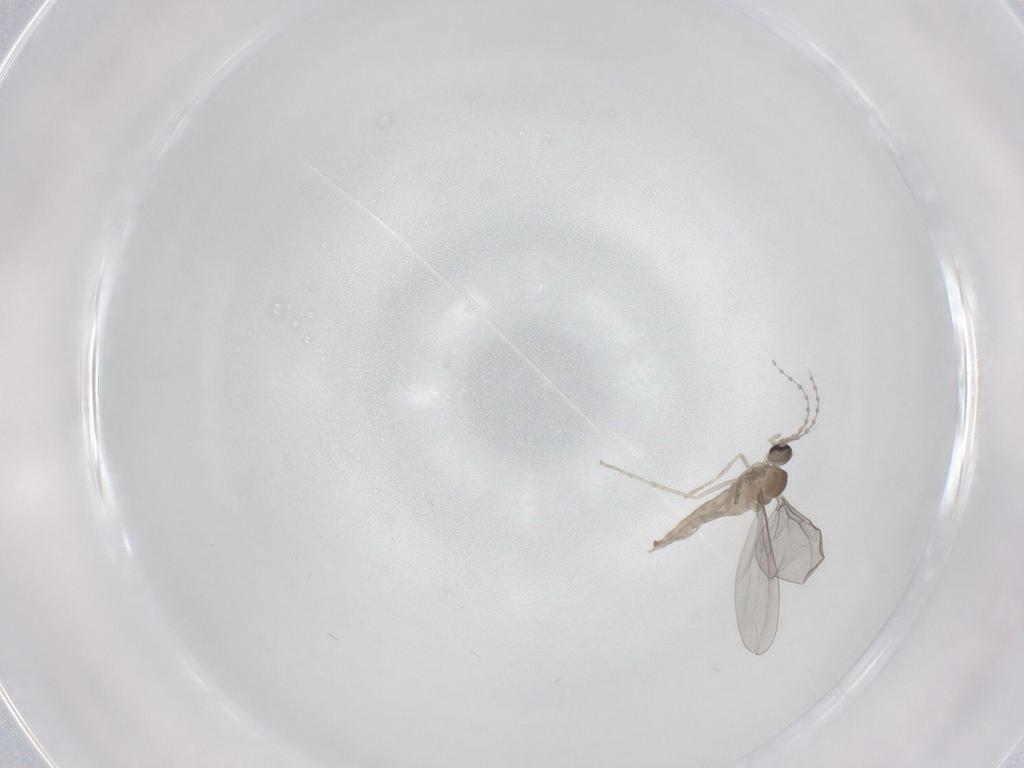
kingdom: Animalia
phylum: Arthropoda
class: Insecta
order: Diptera
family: Cecidomyiidae
